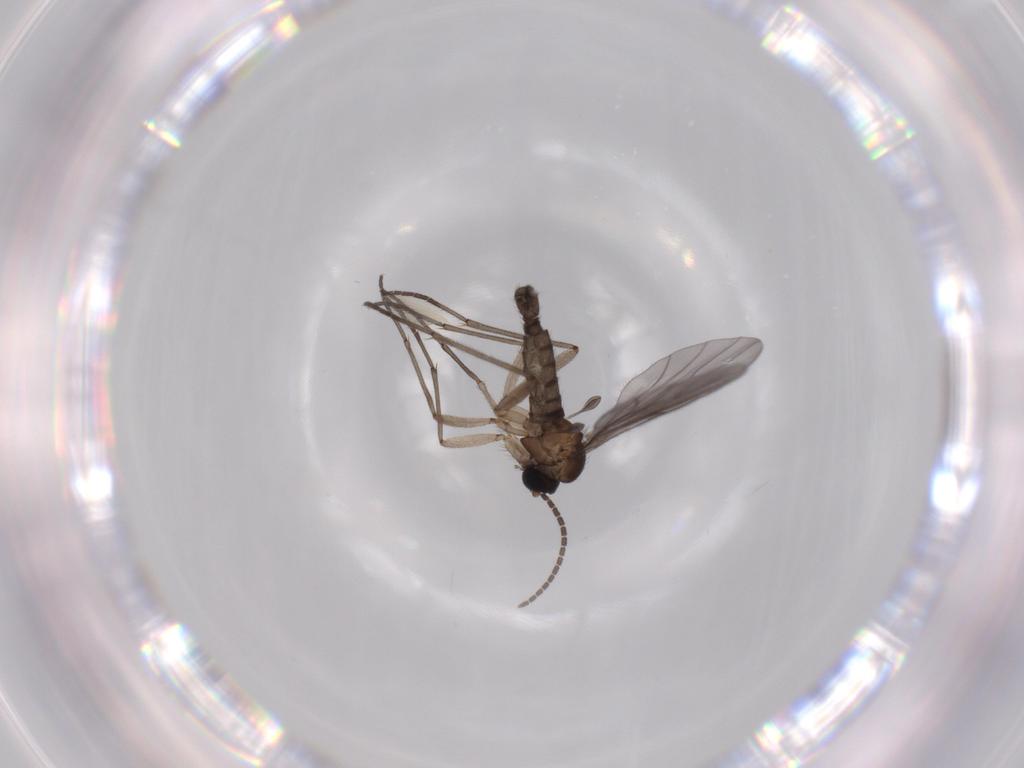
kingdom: Animalia
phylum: Arthropoda
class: Insecta
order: Diptera
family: Sciaridae
